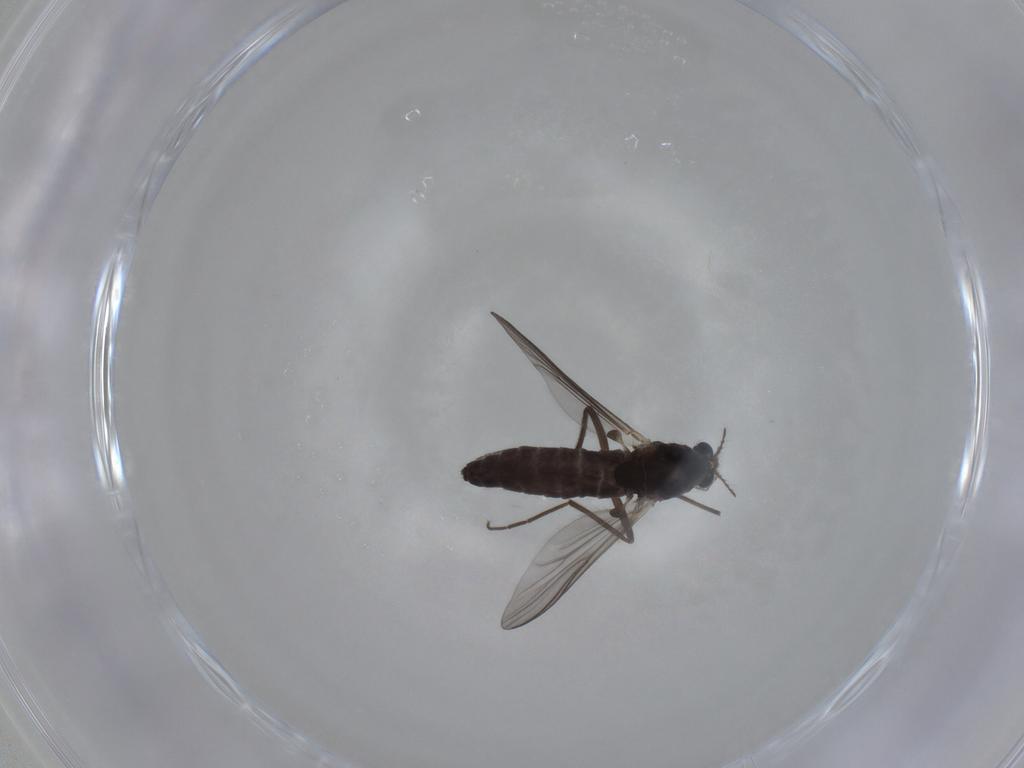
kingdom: Animalia
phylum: Arthropoda
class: Insecta
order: Diptera
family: Chironomidae
